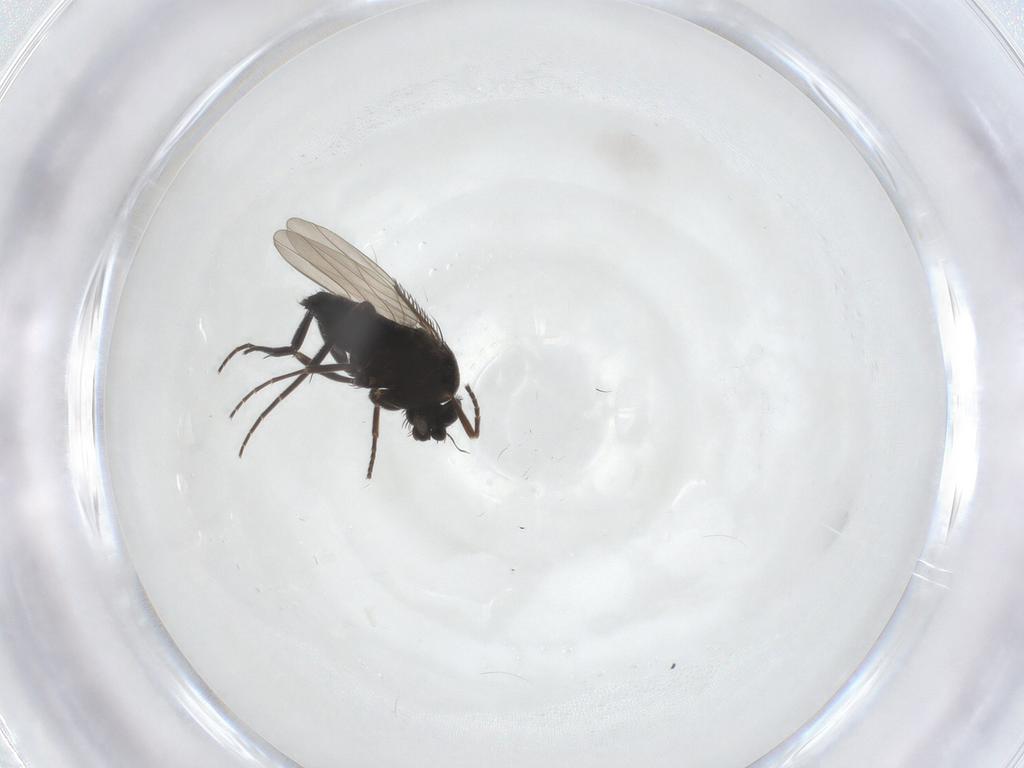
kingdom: Animalia
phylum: Arthropoda
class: Insecta
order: Diptera
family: Phoridae
